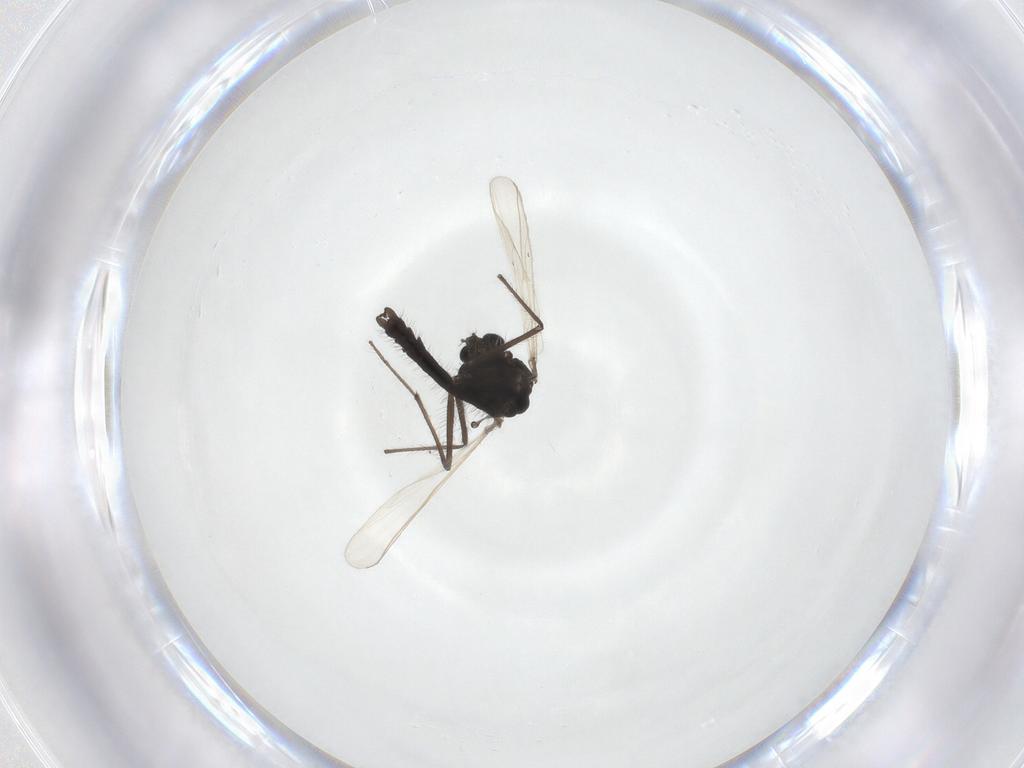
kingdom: Animalia
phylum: Arthropoda
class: Insecta
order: Diptera
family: Chironomidae
